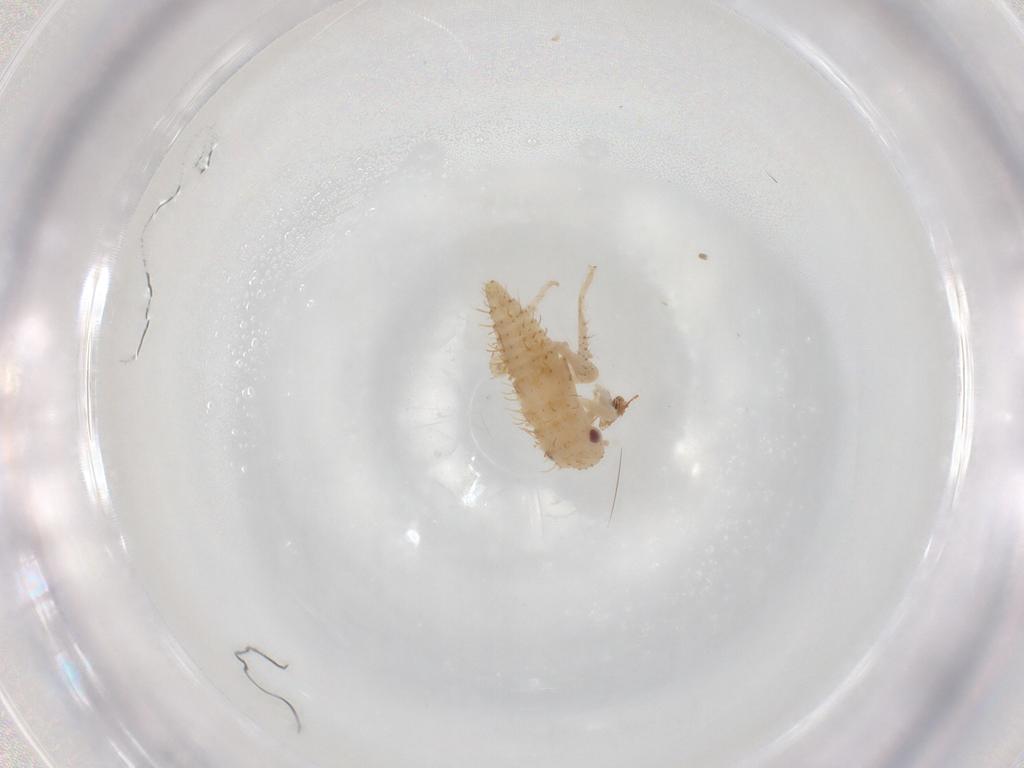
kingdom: Animalia
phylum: Arthropoda
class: Insecta
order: Hemiptera
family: Cicadellidae
